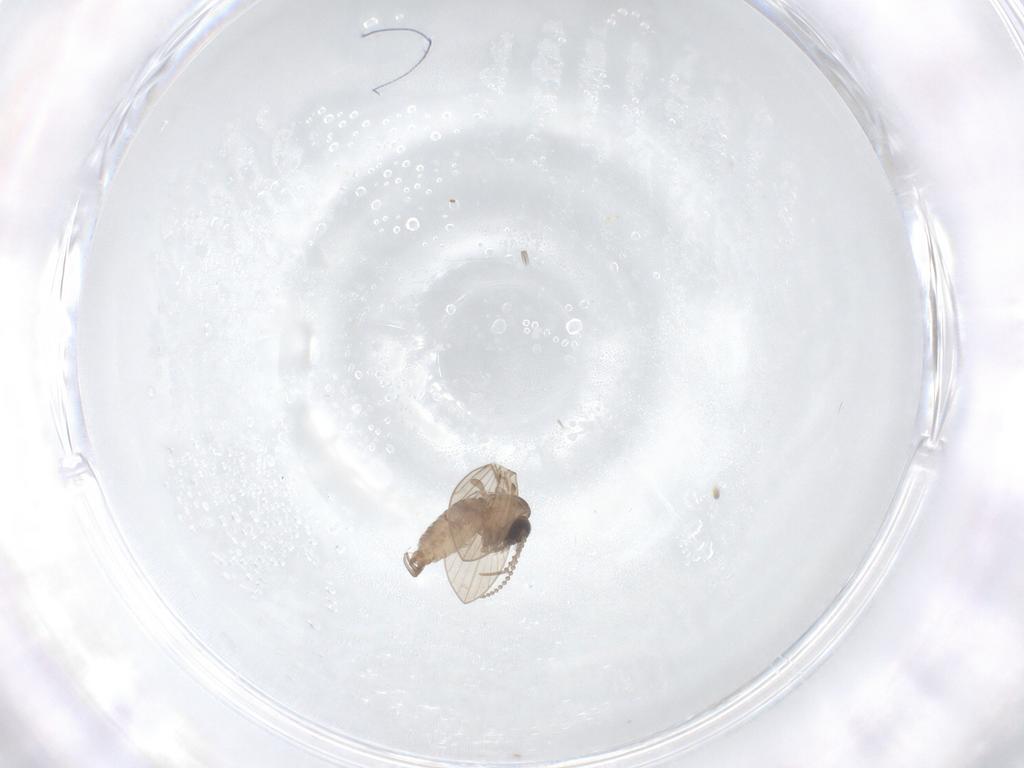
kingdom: Animalia
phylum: Arthropoda
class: Insecta
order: Diptera
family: Psychodidae
